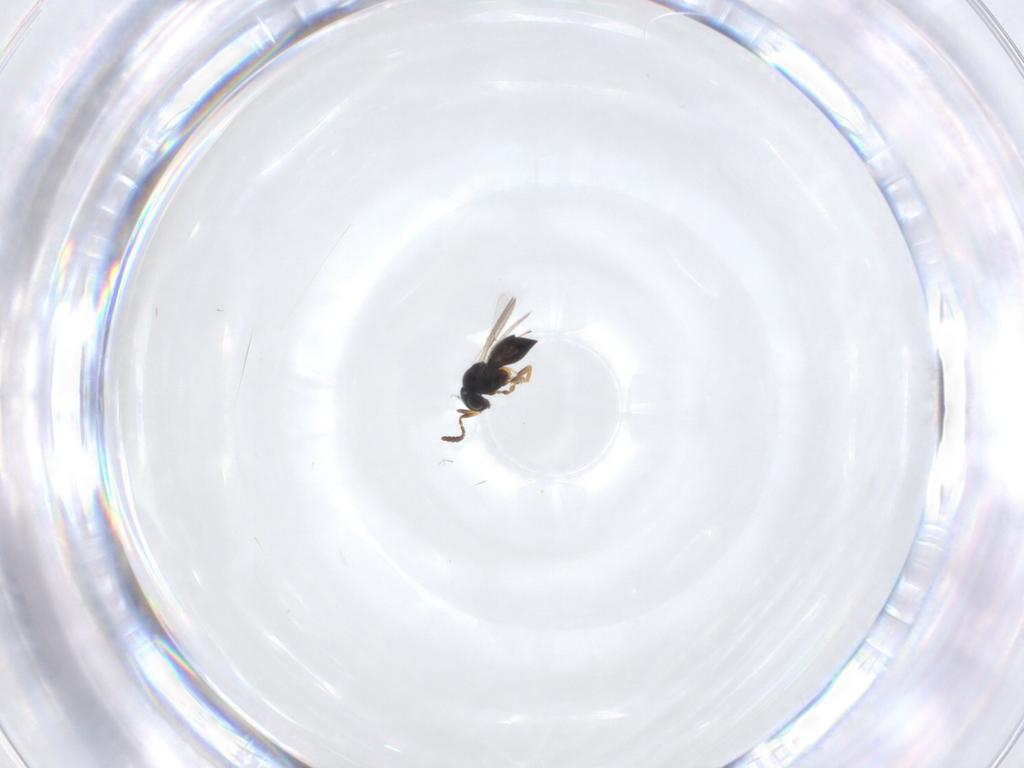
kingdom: Animalia
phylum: Arthropoda
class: Insecta
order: Hymenoptera
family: Scelionidae
